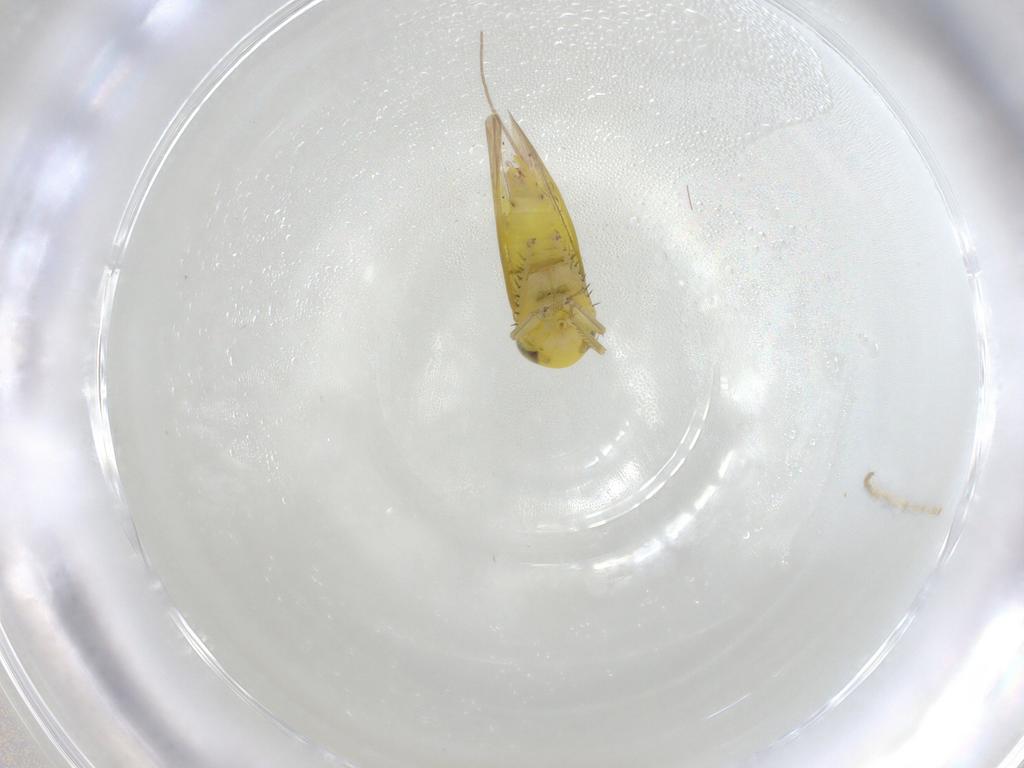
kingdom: Animalia
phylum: Arthropoda
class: Insecta
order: Hemiptera
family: Cicadellidae
